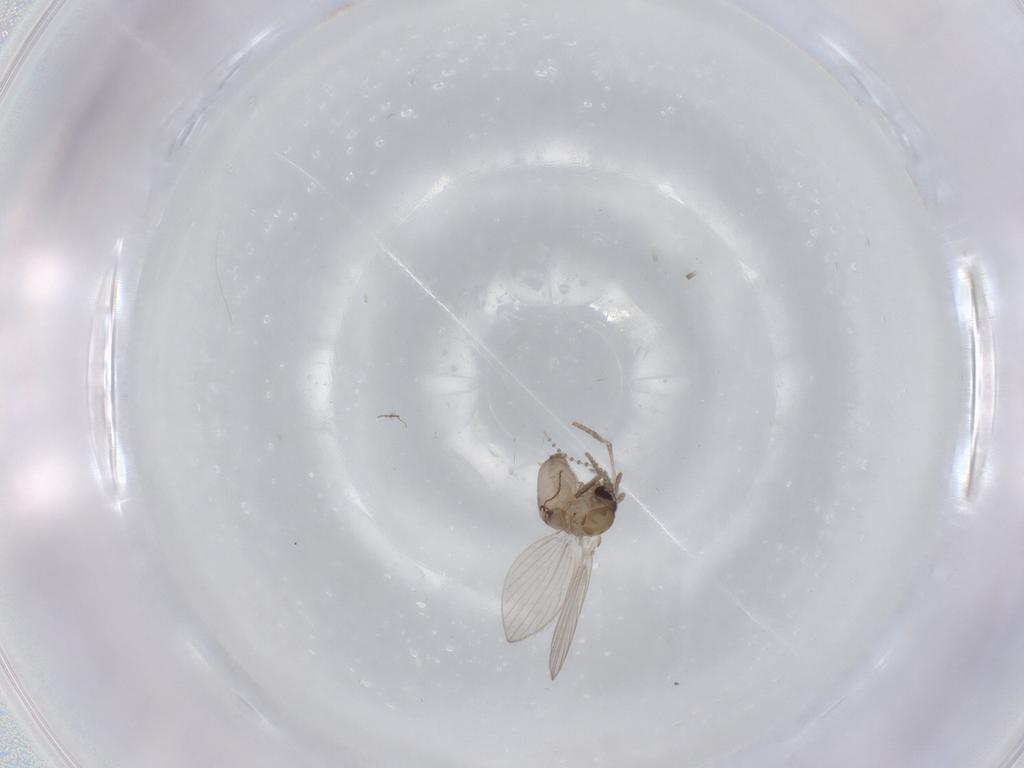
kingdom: Animalia
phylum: Arthropoda
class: Insecta
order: Diptera
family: Psychodidae
